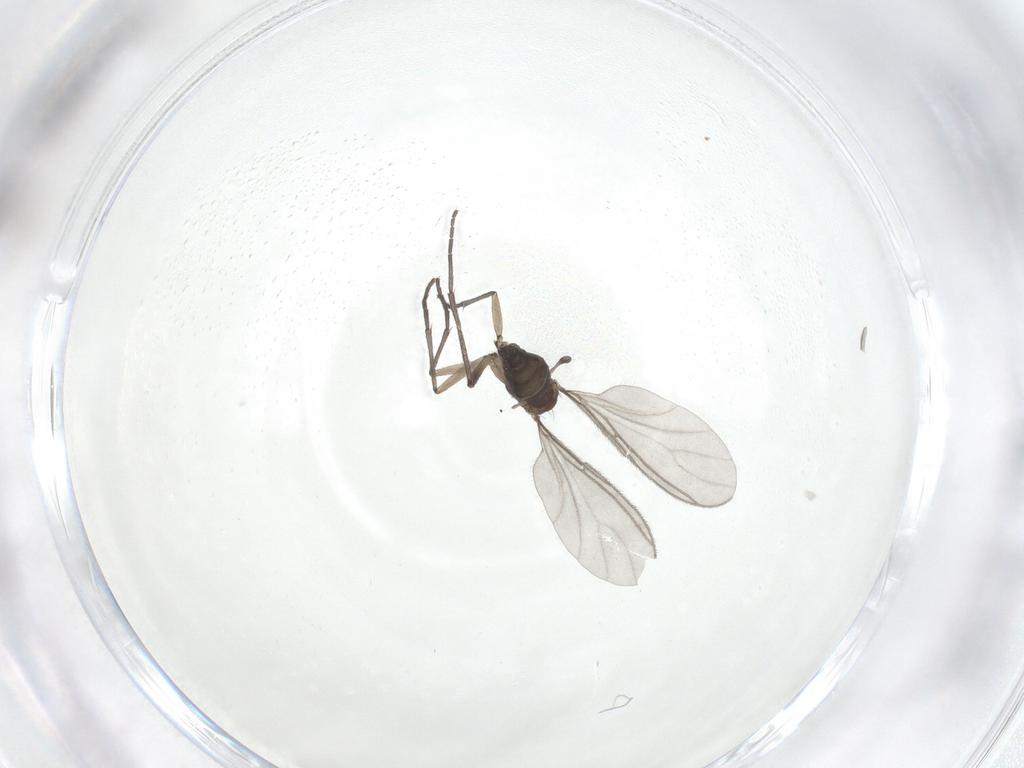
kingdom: Animalia
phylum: Arthropoda
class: Insecta
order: Diptera
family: Sciaridae
